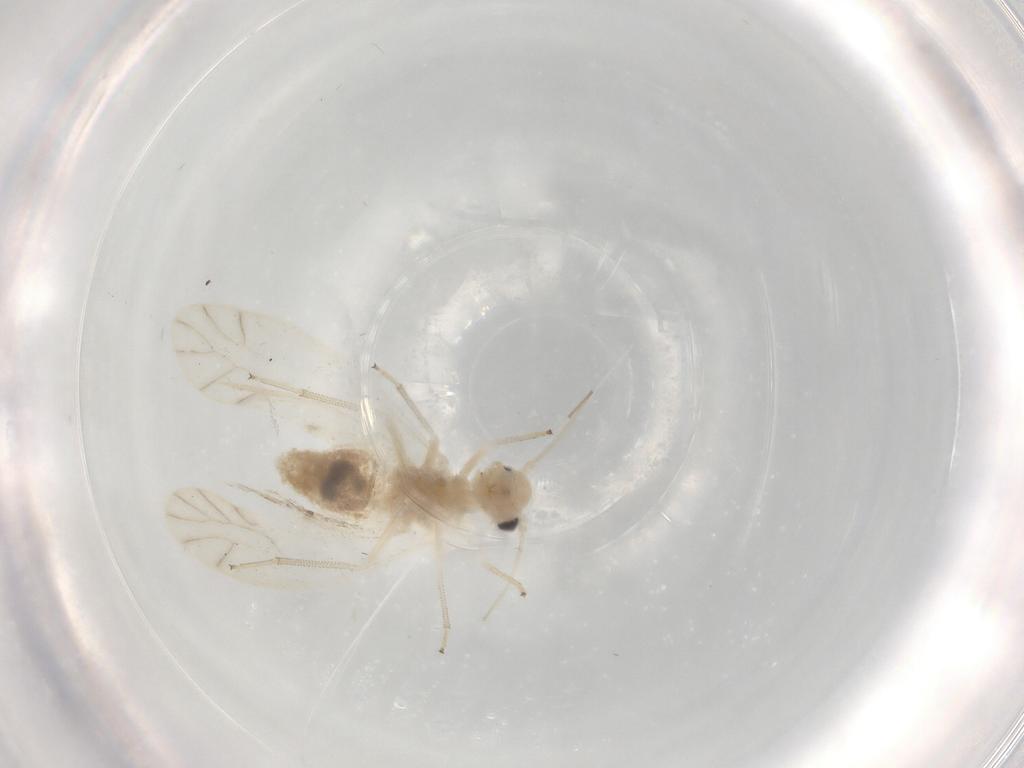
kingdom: Animalia
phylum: Arthropoda
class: Insecta
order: Psocodea
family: Caeciliusidae
